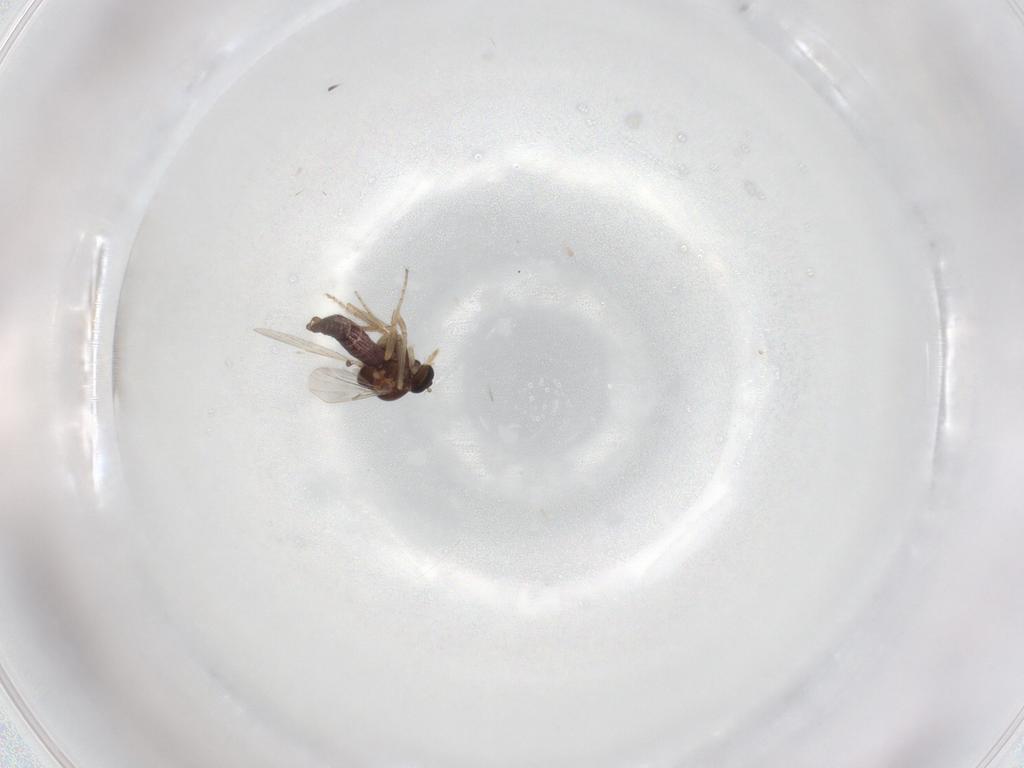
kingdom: Animalia
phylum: Arthropoda
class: Insecta
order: Diptera
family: Ceratopogonidae
